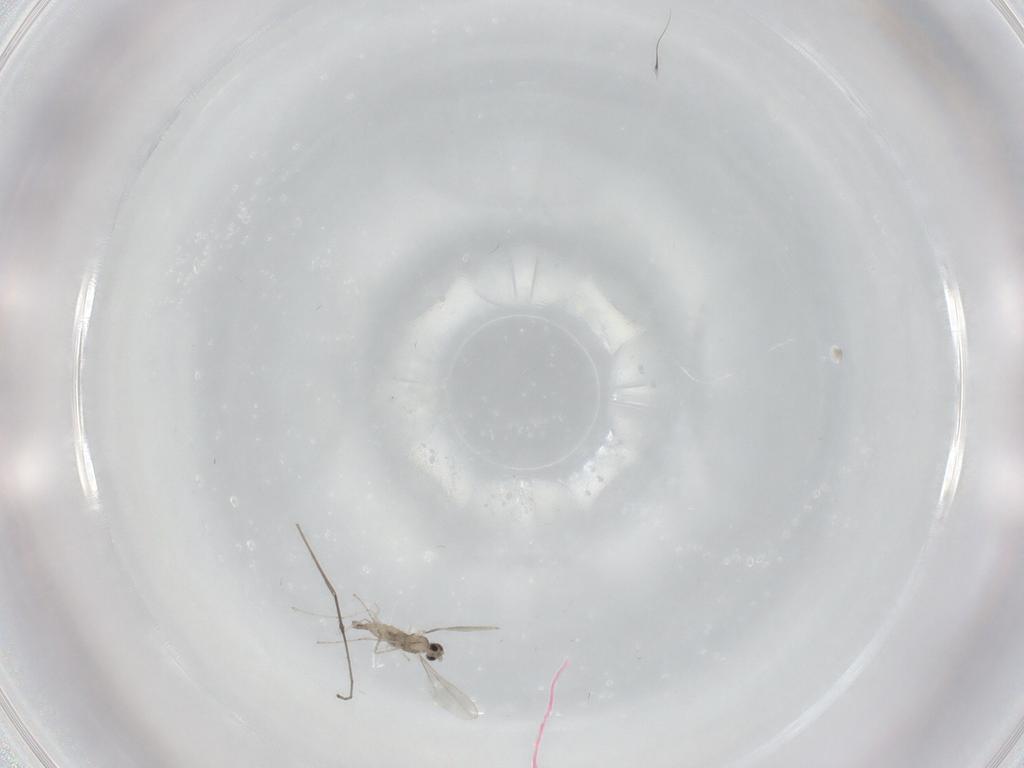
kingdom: Animalia
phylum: Arthropoda
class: Insecta
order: Diptera
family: Cecidomyiidae
